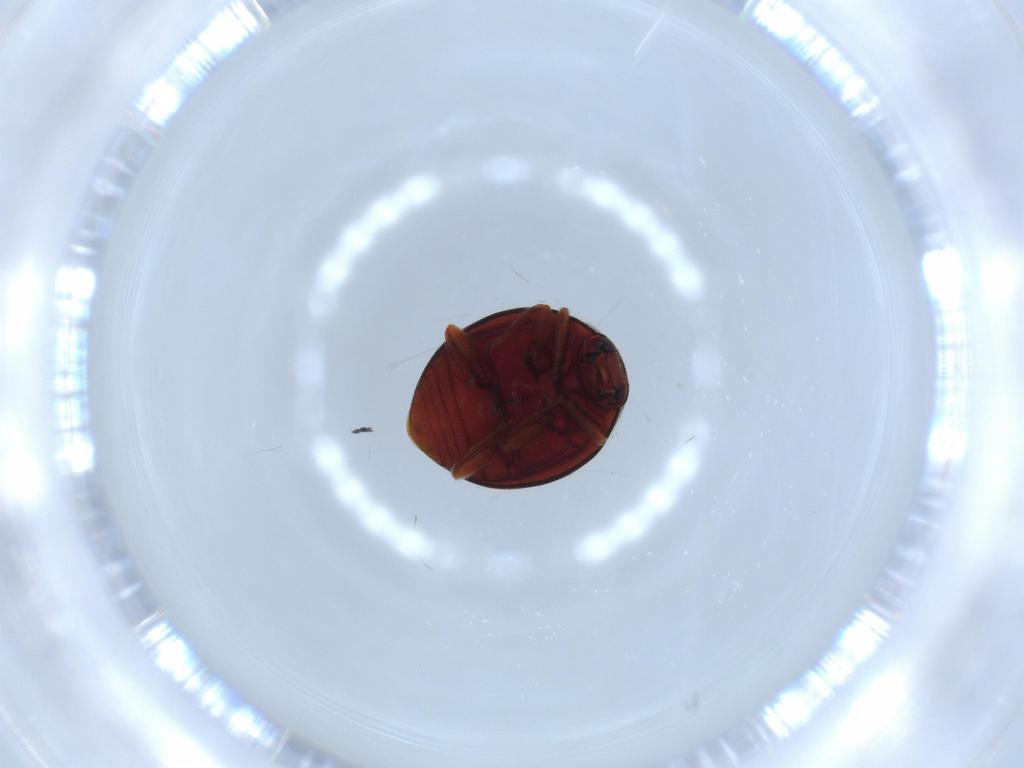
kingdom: Animalia
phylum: Arthropoda
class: Insecta
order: Coleoptera
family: Coccinellidae
